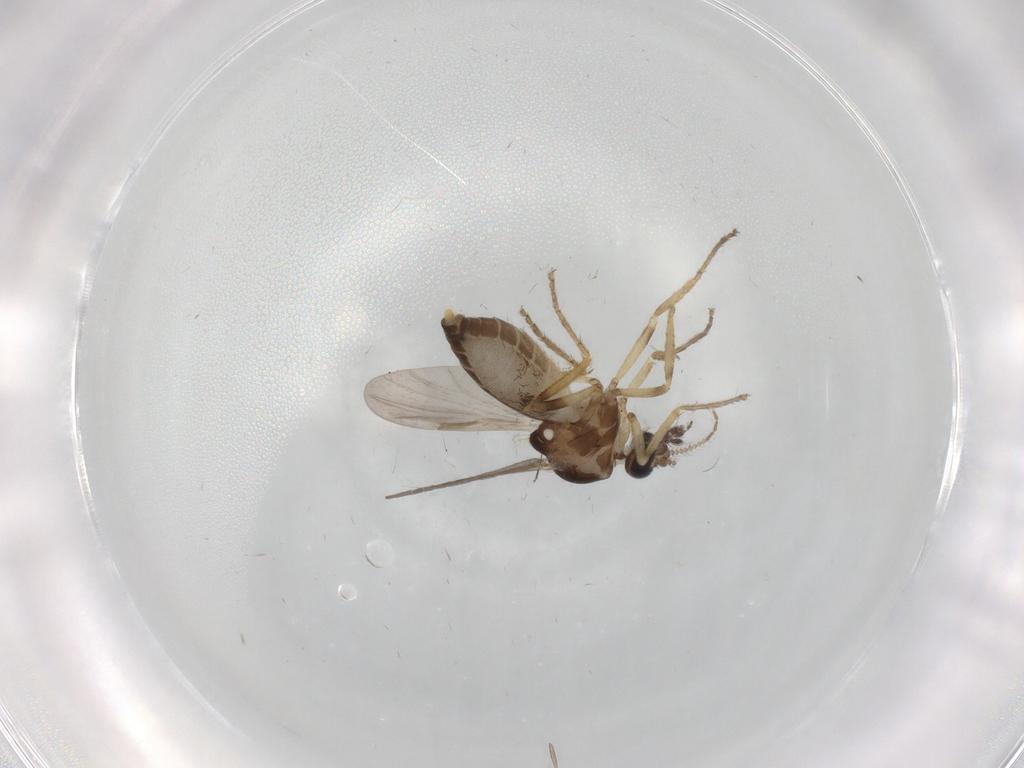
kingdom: Animalia
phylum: Arthropoda
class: Insecta
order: Diptera
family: Ceratopogonidae
